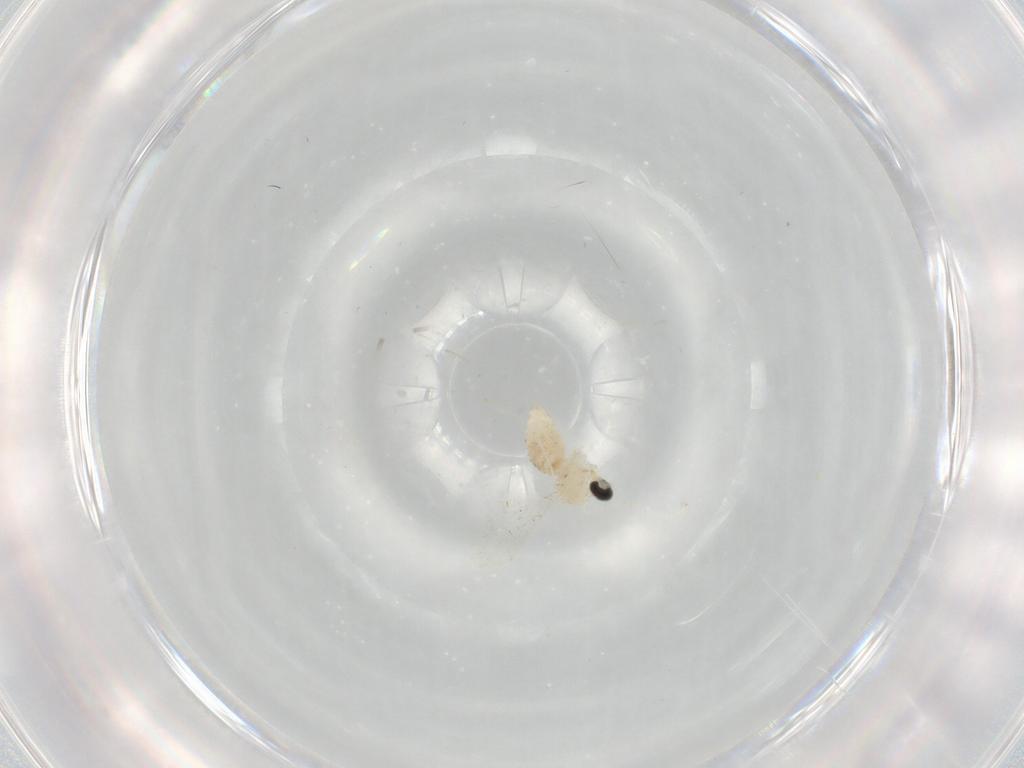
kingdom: Animalia
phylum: Arthropoda
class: Insecta
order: Diptera
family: Cecidomyiidae
